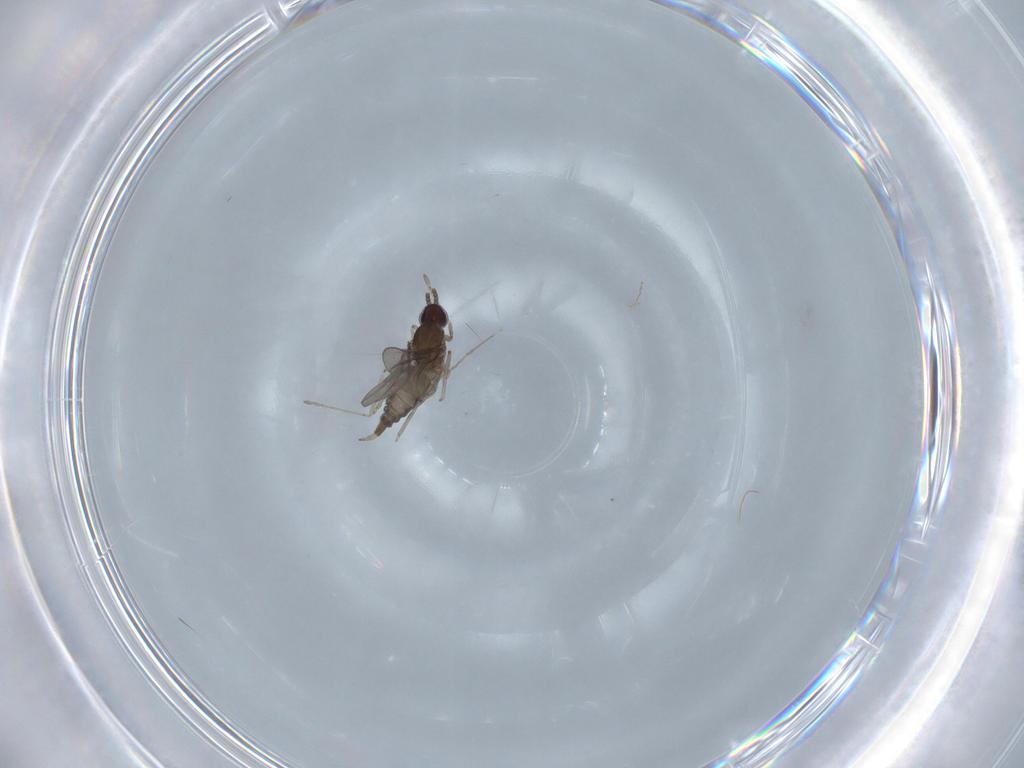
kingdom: Animalia
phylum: Arthropoda
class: Insecta
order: Diptera
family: Cecidomyiidae
